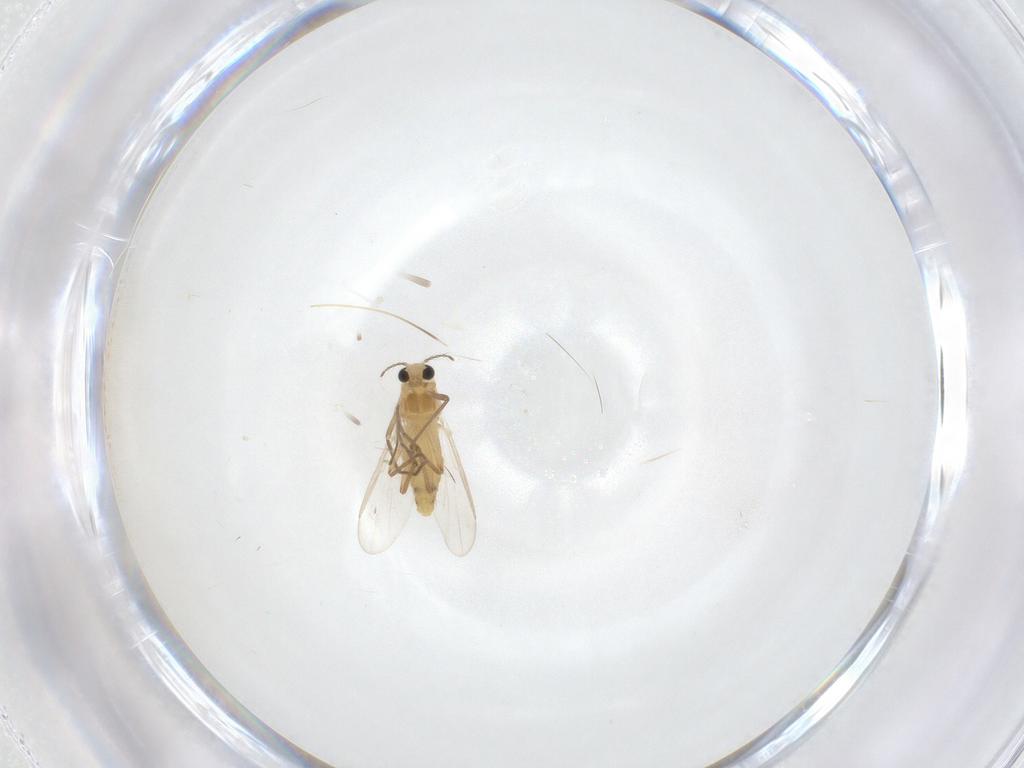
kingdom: Animalia
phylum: Arthropoda
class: Insecta
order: Diptera
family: Chironomidae
